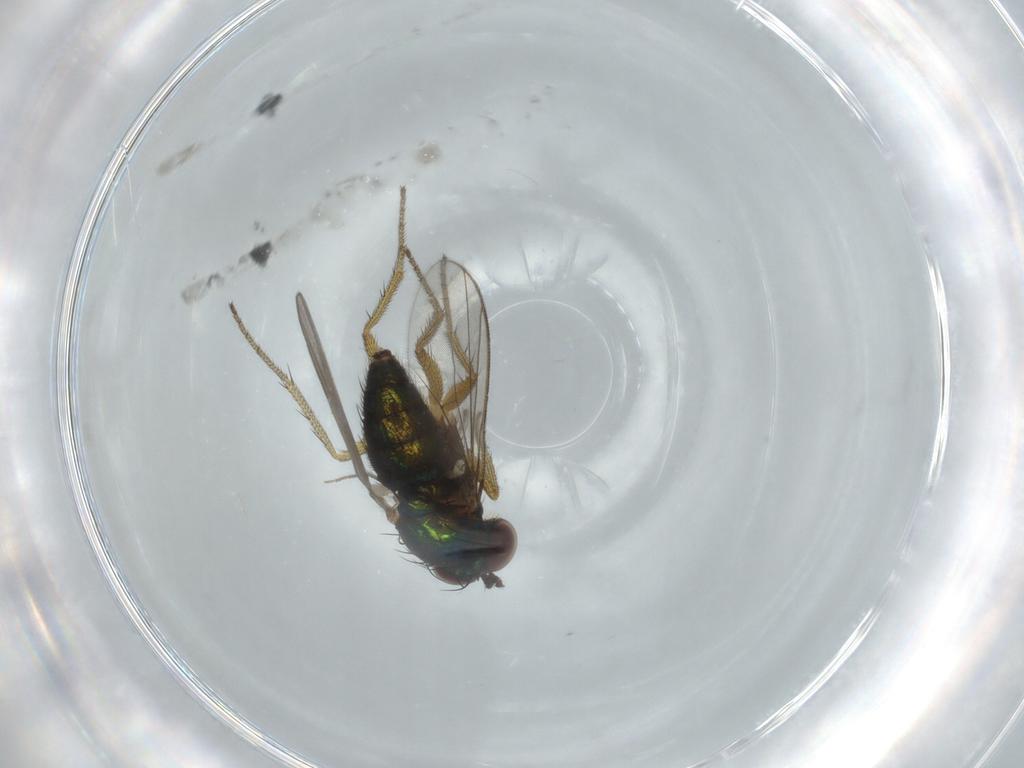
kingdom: Animalia
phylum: Arthropoda
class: Insecta
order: Diptera
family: Dolichopodidae
